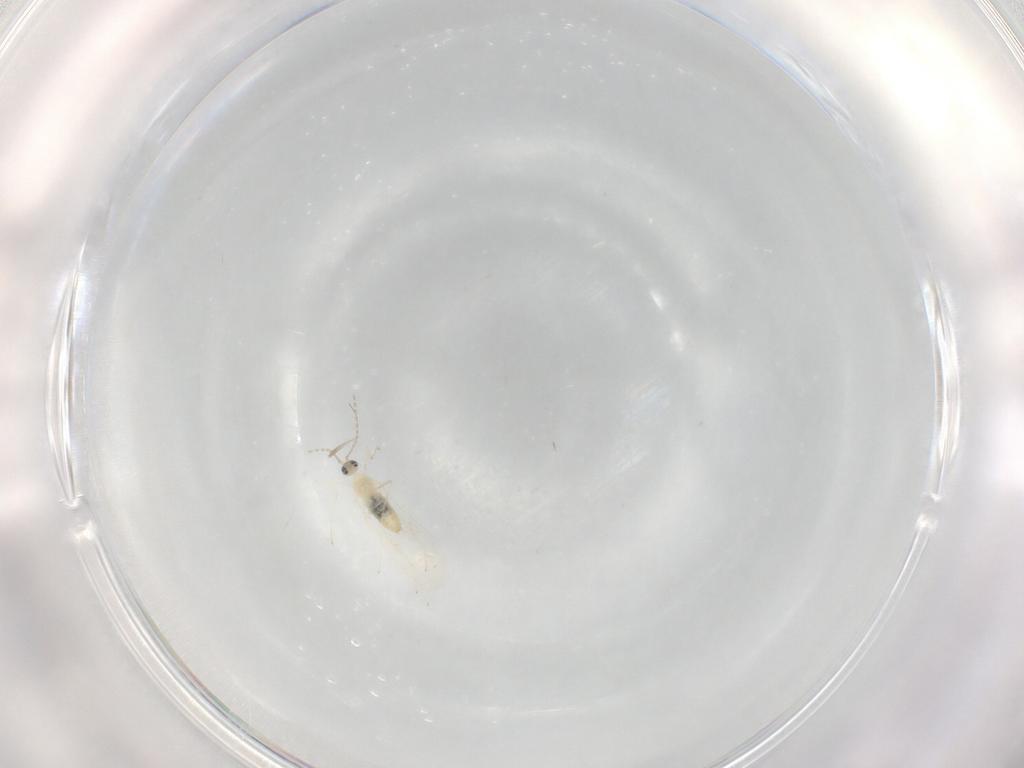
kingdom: Animalia
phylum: Arthropoda
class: Insecta
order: Diptera
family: Cecidomyiidae
